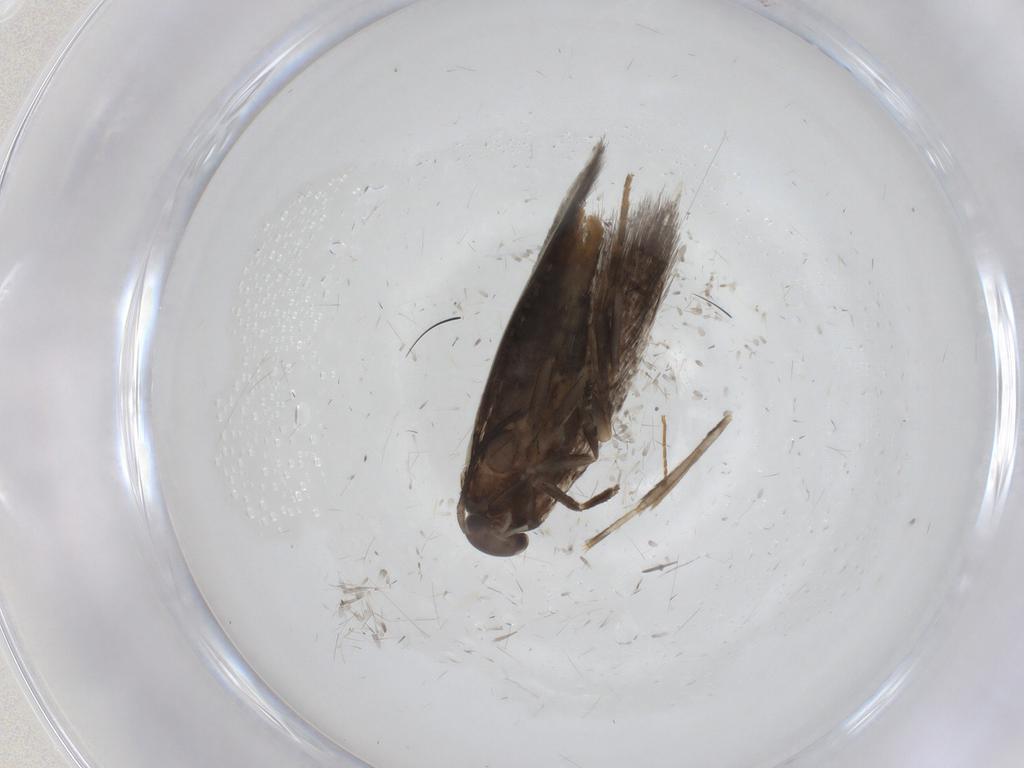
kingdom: Animalia
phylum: Arthropoda
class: Insecta
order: Lepidoptera
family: Elachistidae
